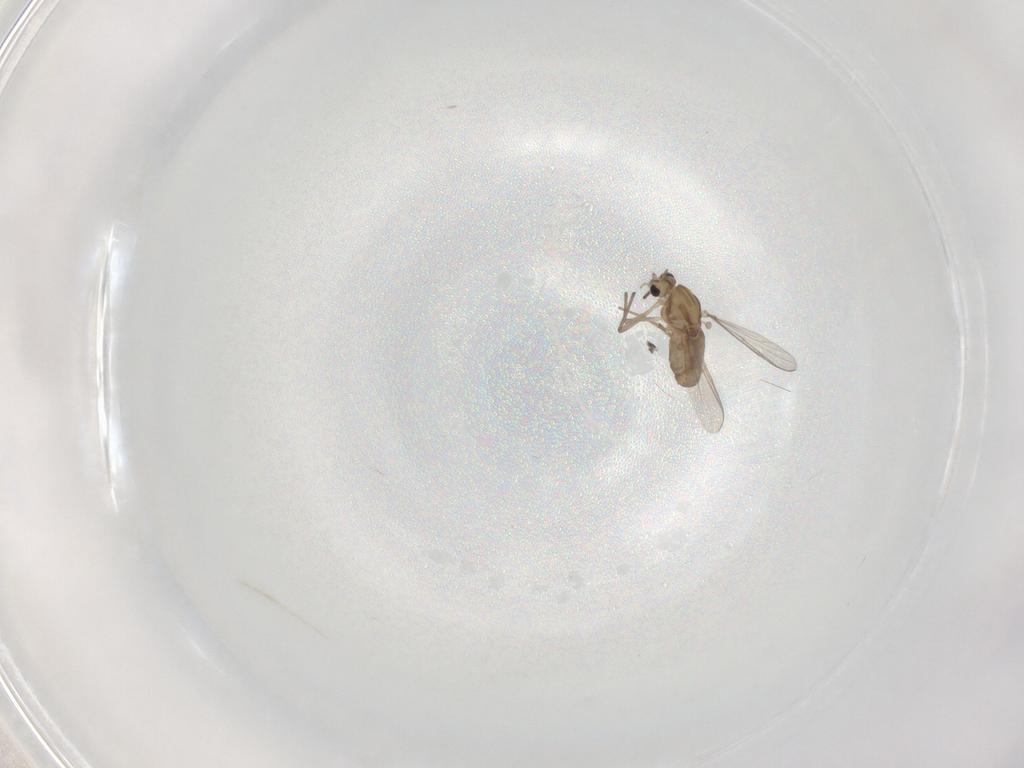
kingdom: Animalia
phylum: Arthropoda
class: Insecta
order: Diptera
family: Chironomidae
